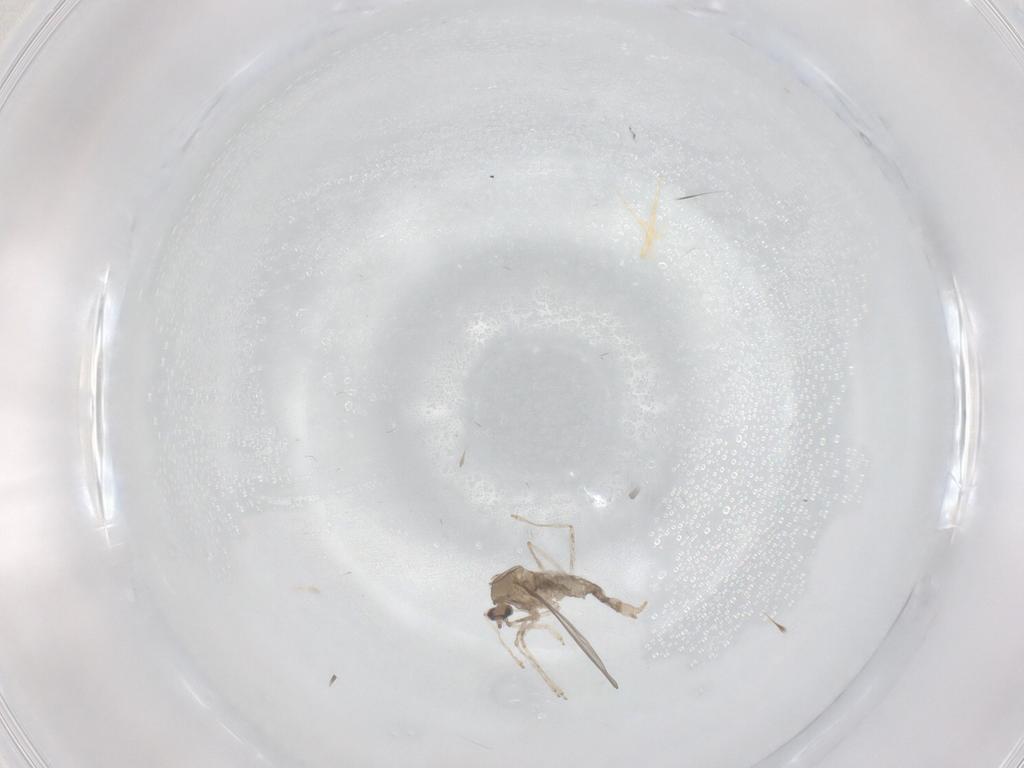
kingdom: Animalia
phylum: Arthropoda
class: Insecta
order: Diptera
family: Cecidomyiidae
